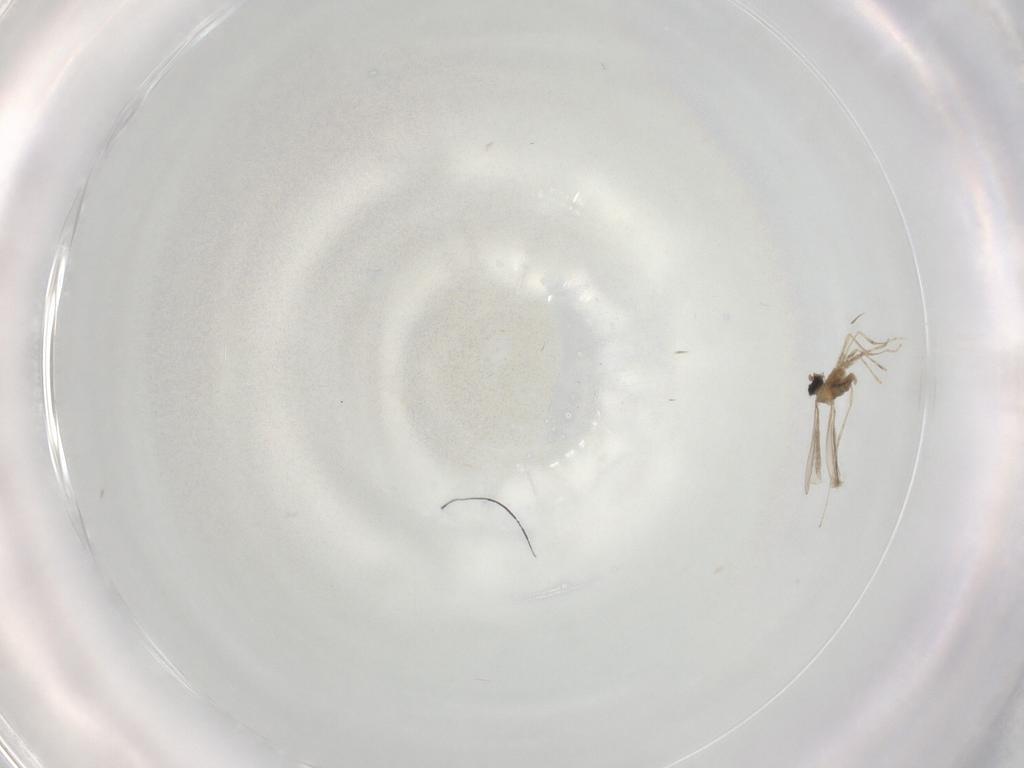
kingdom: Animalia
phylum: Arthropoda
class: Insecta
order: Diptera
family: Cecidomyiidae
